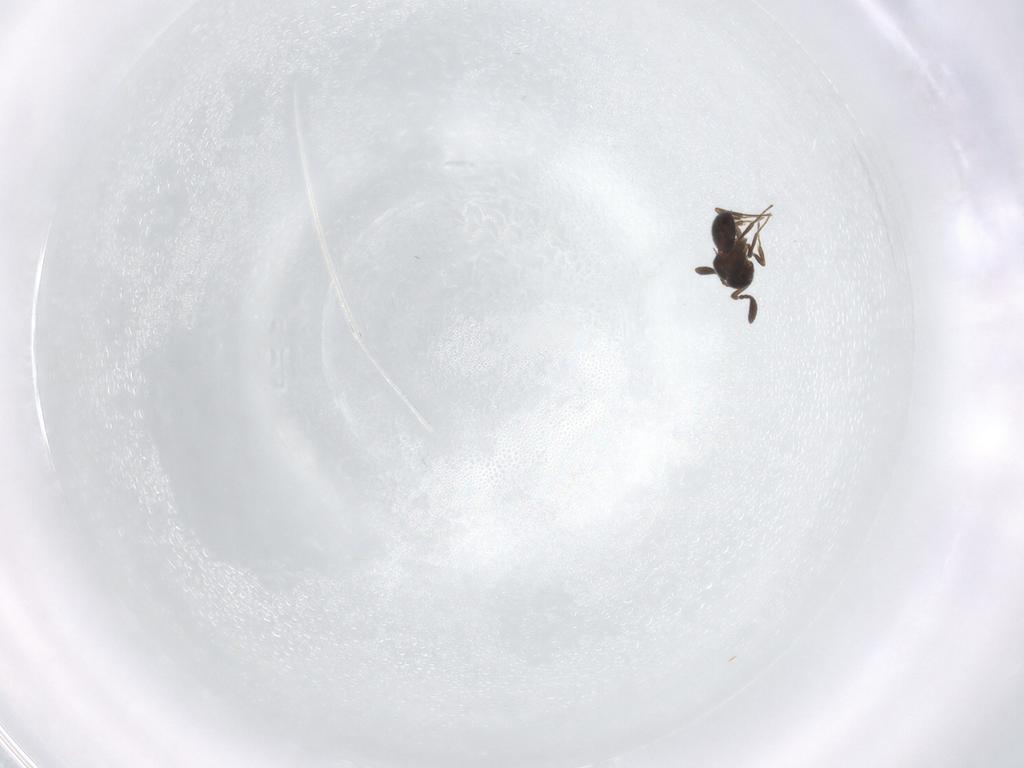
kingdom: Animalia
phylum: Arthropoda
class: Insecta
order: Hymenoptera
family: Scelionidae
